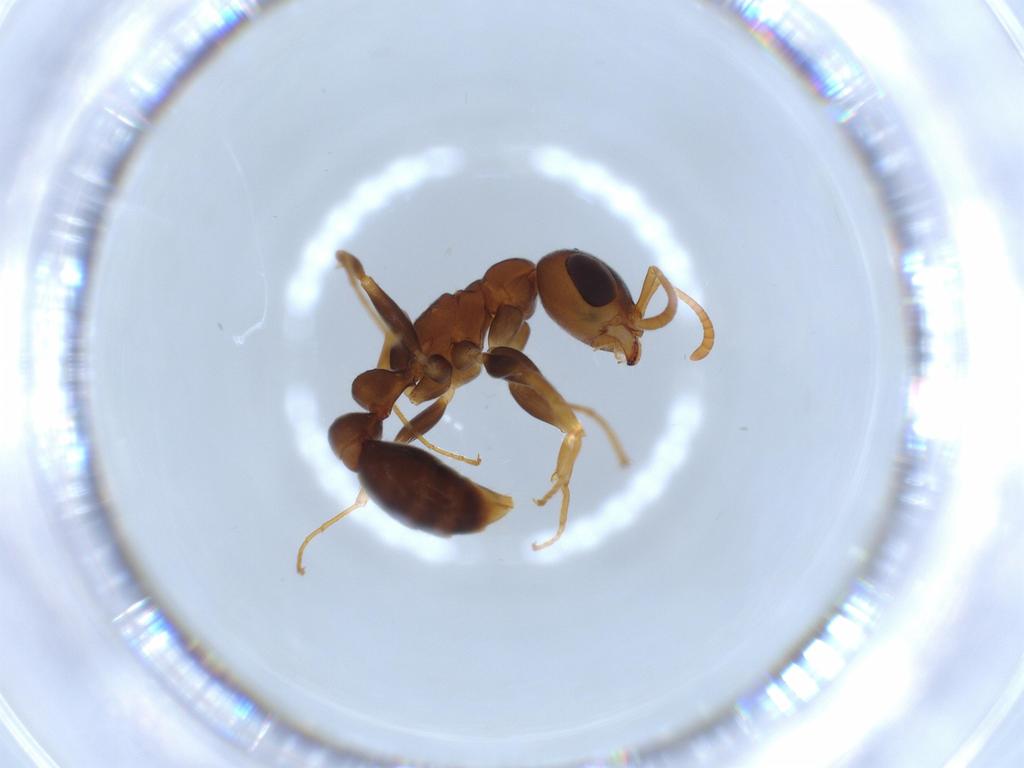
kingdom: Animalia
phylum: Arthropoda
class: Insecta
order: Hymenoptera
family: Formicidae
